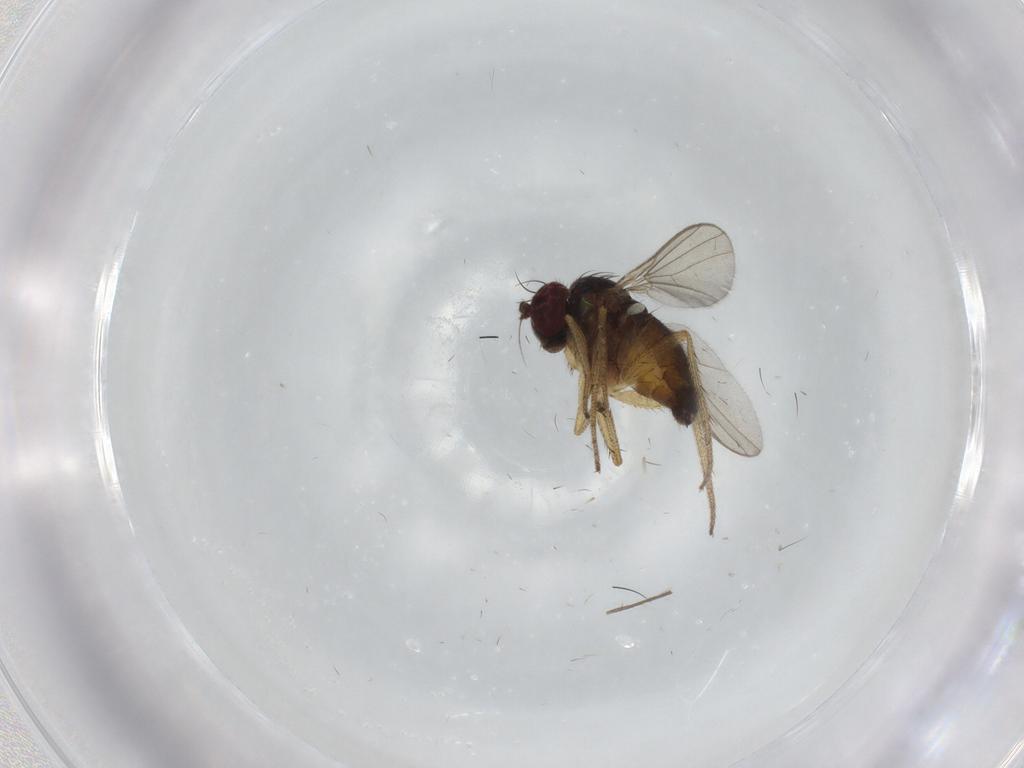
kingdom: Animalia
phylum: Arthropoda
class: Insecta
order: Diptera
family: Dolichopodidae
